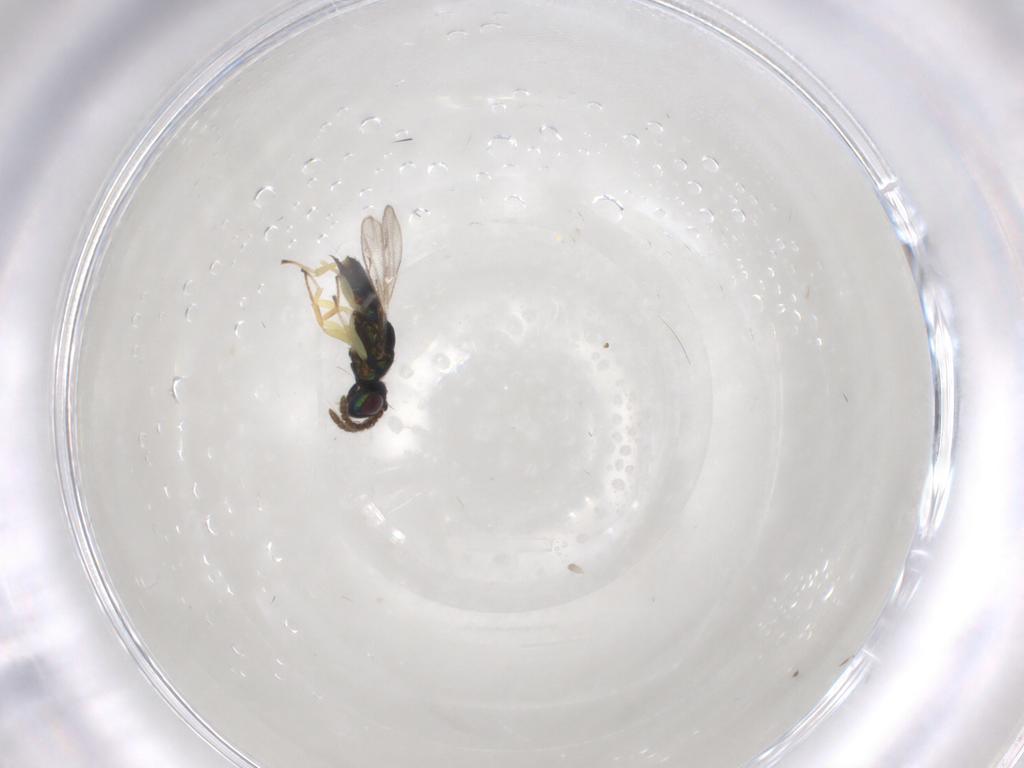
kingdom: Animalia
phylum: Arthropoda
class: Insecta
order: Hymenoptera
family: Eupelmidae
